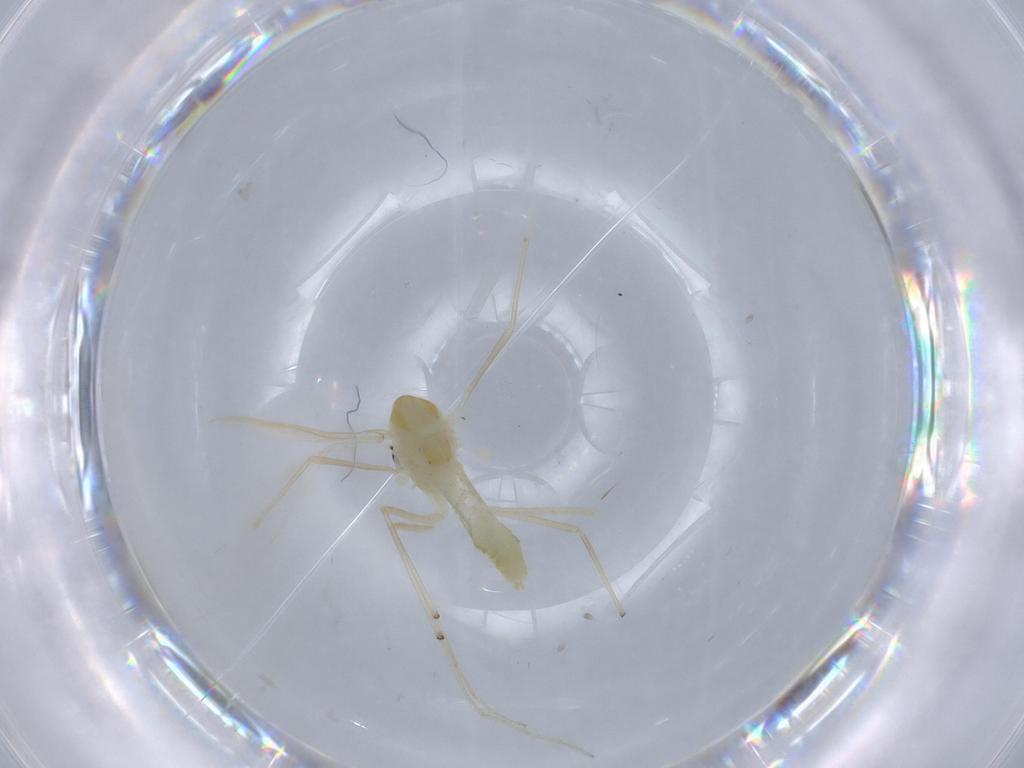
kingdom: Animalia
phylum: Arthropoda
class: Insecta
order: Diptera
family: Chironomidae
